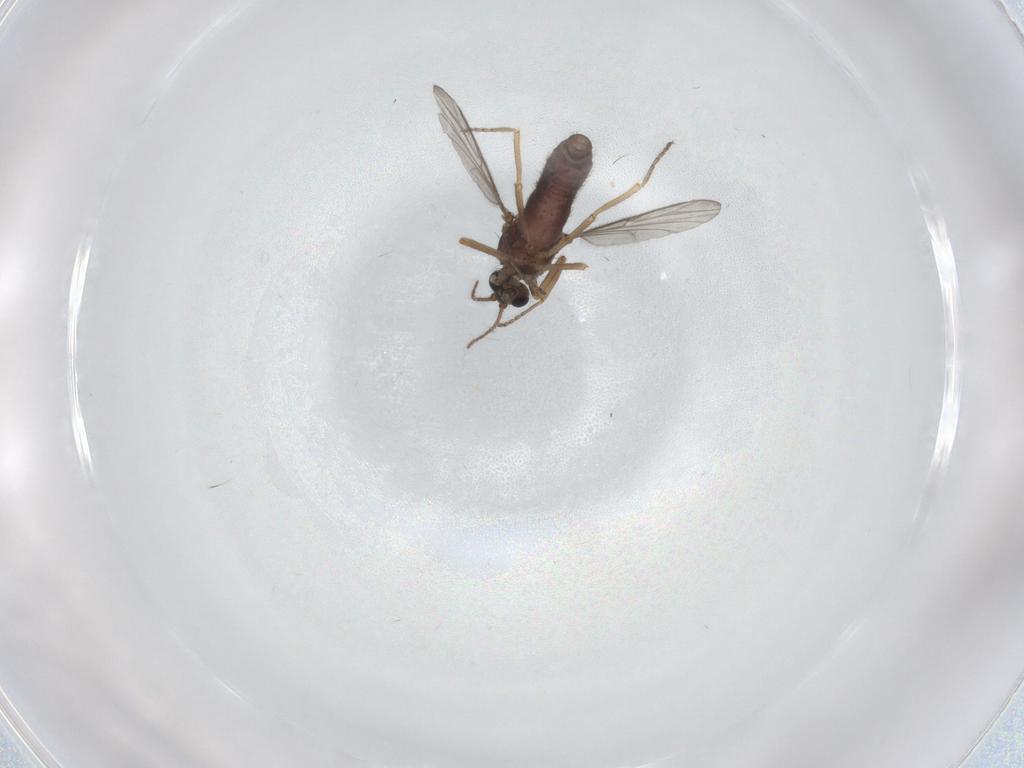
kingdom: Animalia
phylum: Arthropoda
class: Insecta
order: Diptera
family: Ceratopogonidae
